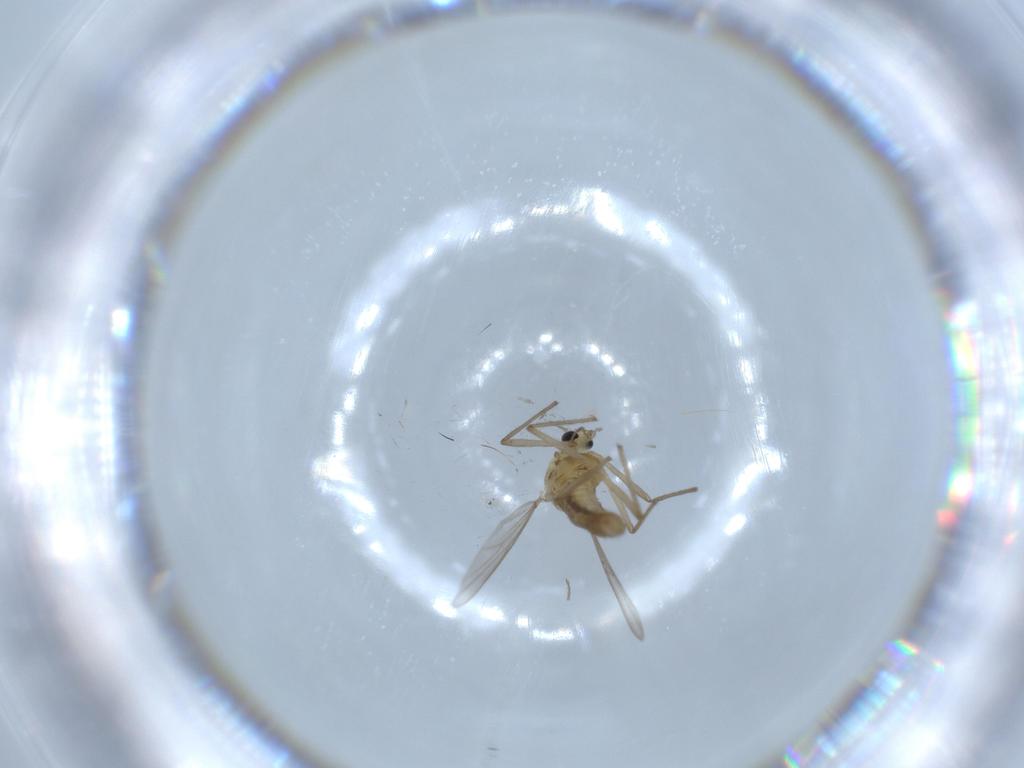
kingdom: Animalia
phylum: Arthropoda
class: Insecta
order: Diptera
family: Chironomidae
